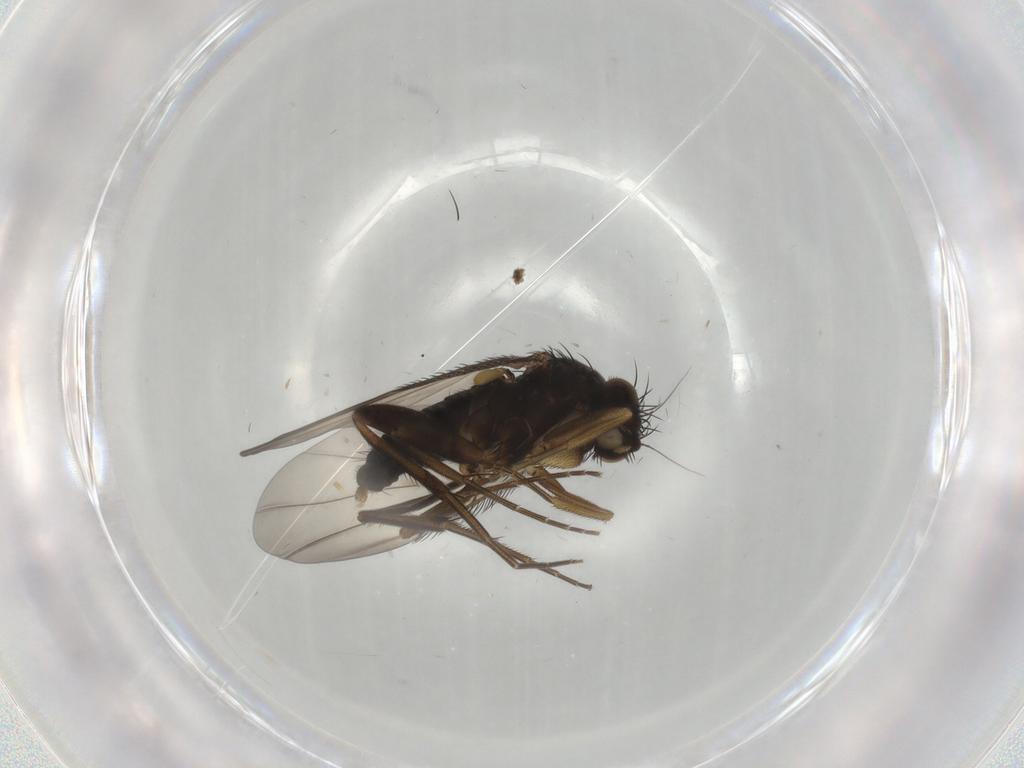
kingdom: Animalia
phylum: Arthropoda
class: Insecta
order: Diptera
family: Phoridae
